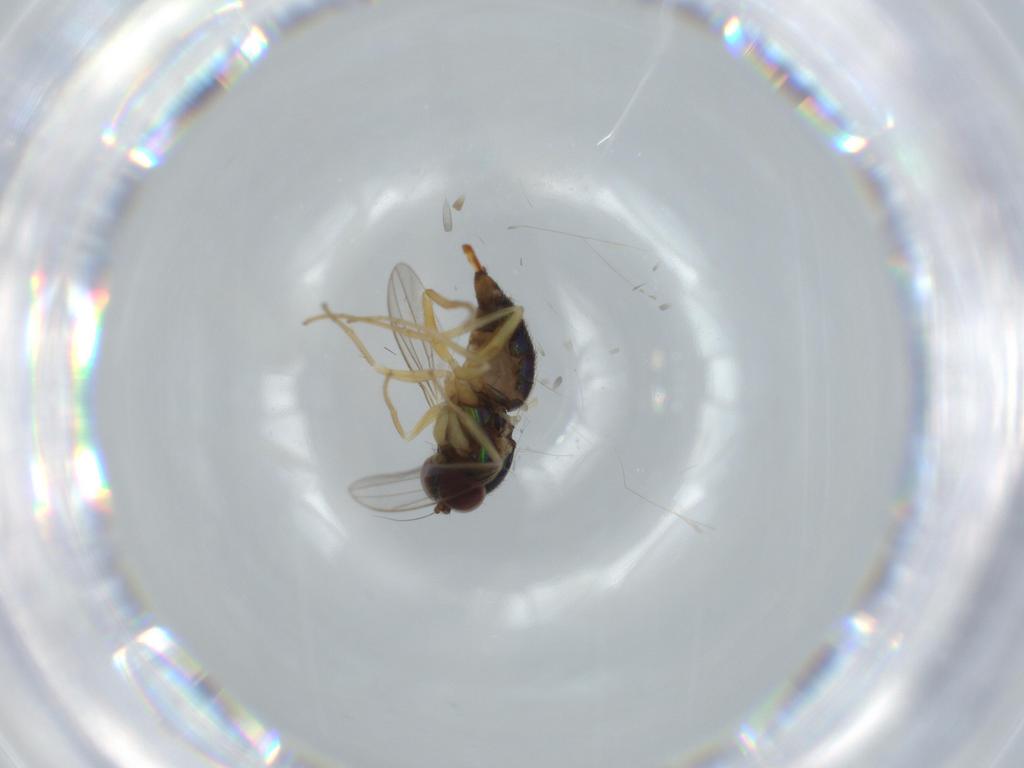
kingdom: Animalia
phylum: Arthropoda
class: Insecta
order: Diptera
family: Dolichopodidae
